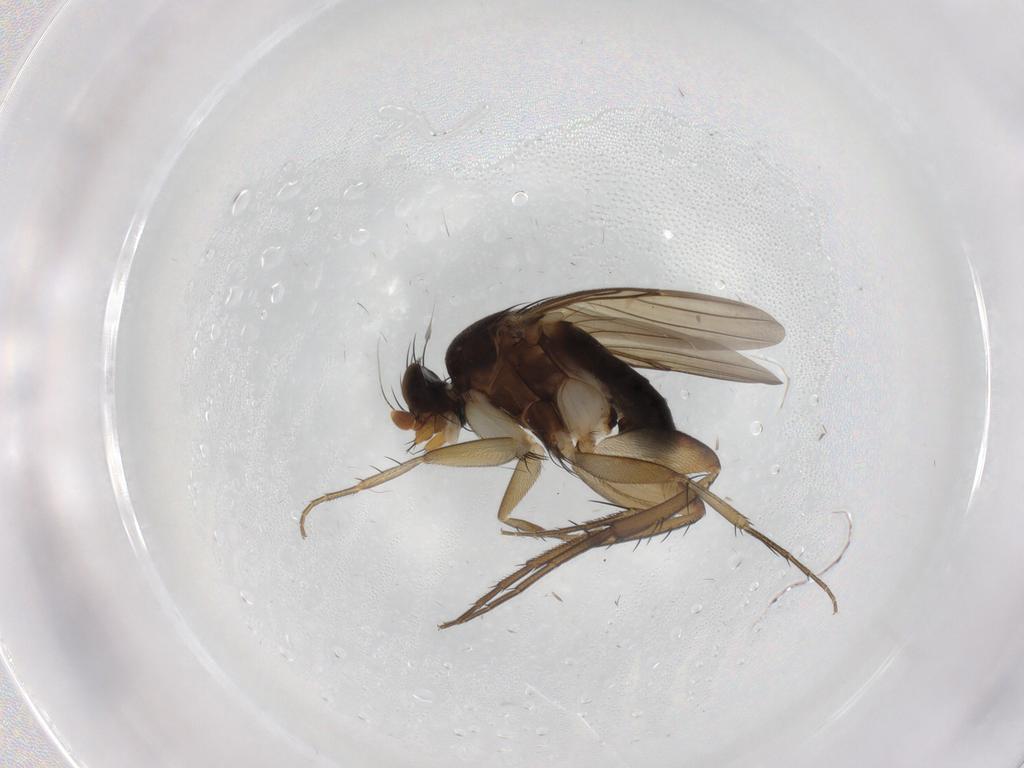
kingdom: Animalia
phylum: Arthropoda
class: Insecta
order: Diptera
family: Phoridae
